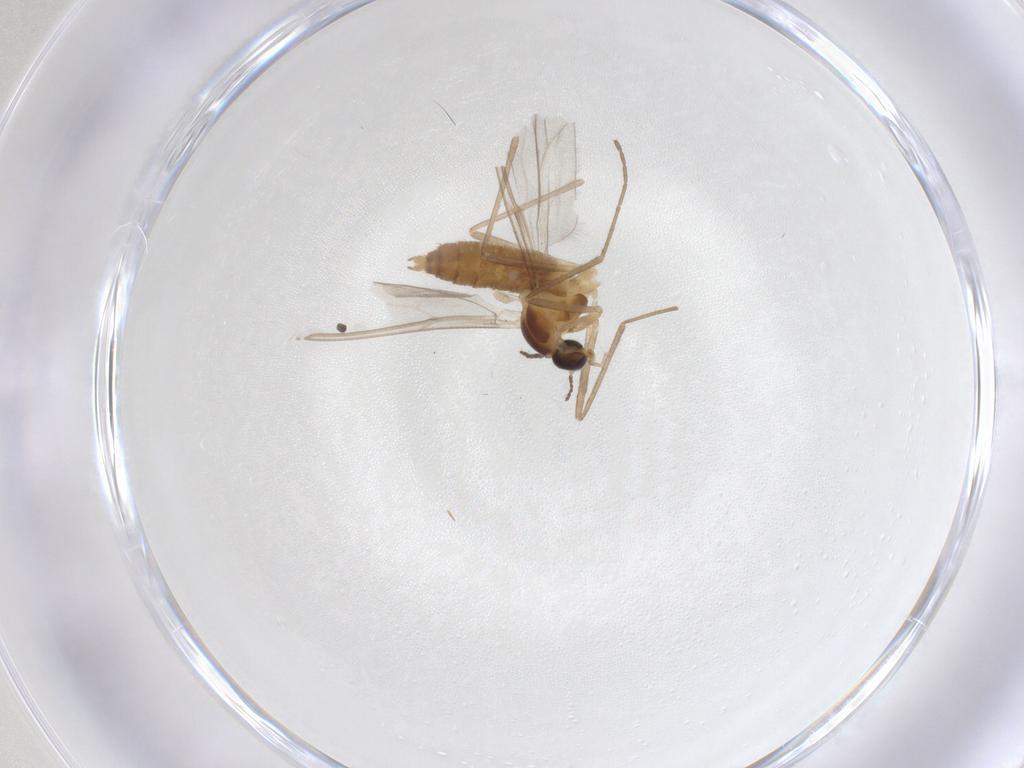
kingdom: Animalia
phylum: Arthropoda
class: Insecta
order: Diptera
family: Cecidomyiidae
